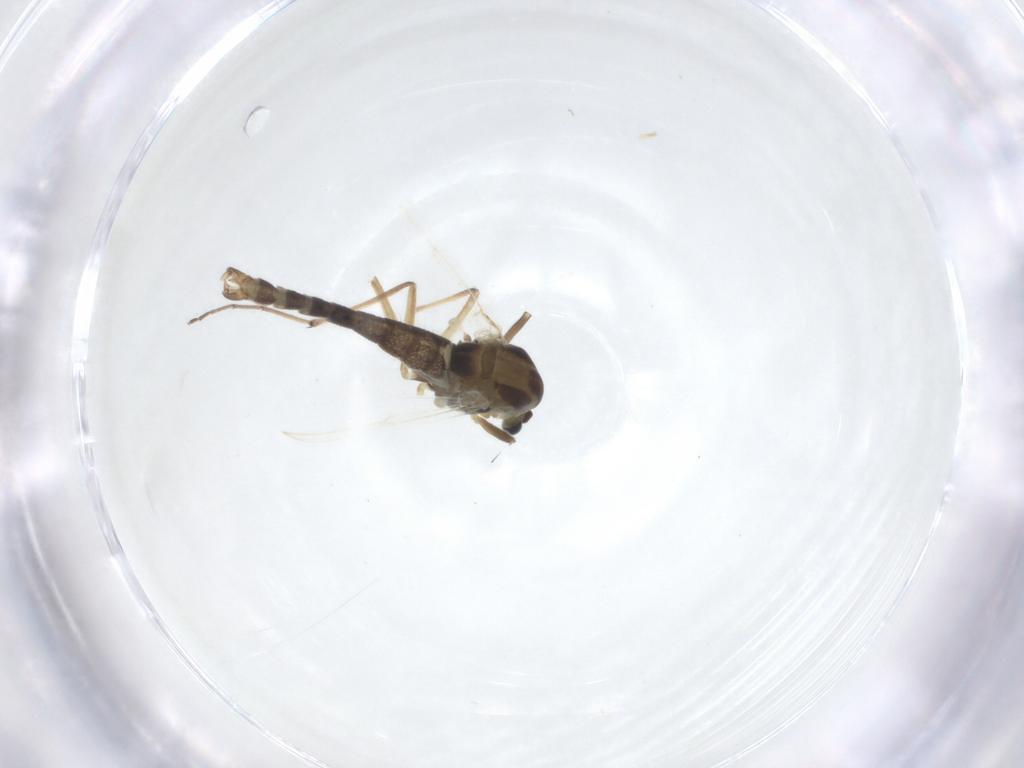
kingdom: Animalia
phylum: Arthropoda
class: Insecta
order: Diptera
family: Chironomidae
